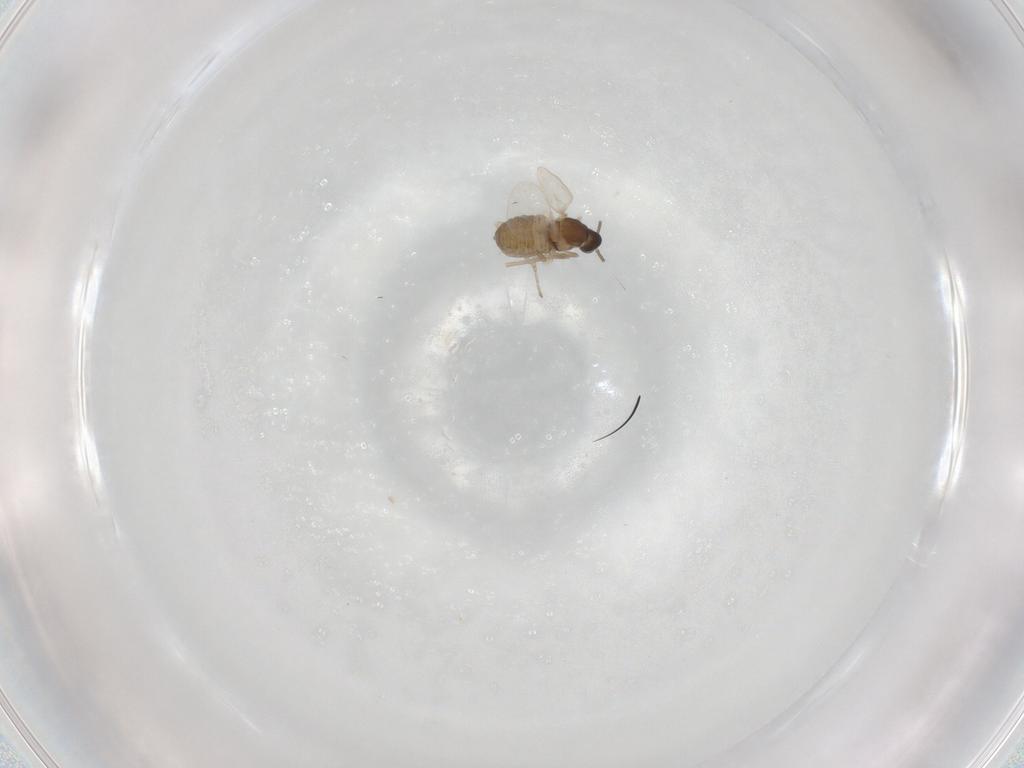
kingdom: Animalia
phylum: Arthropoda
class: Insecta
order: Diptera
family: Cecidomyiidae
